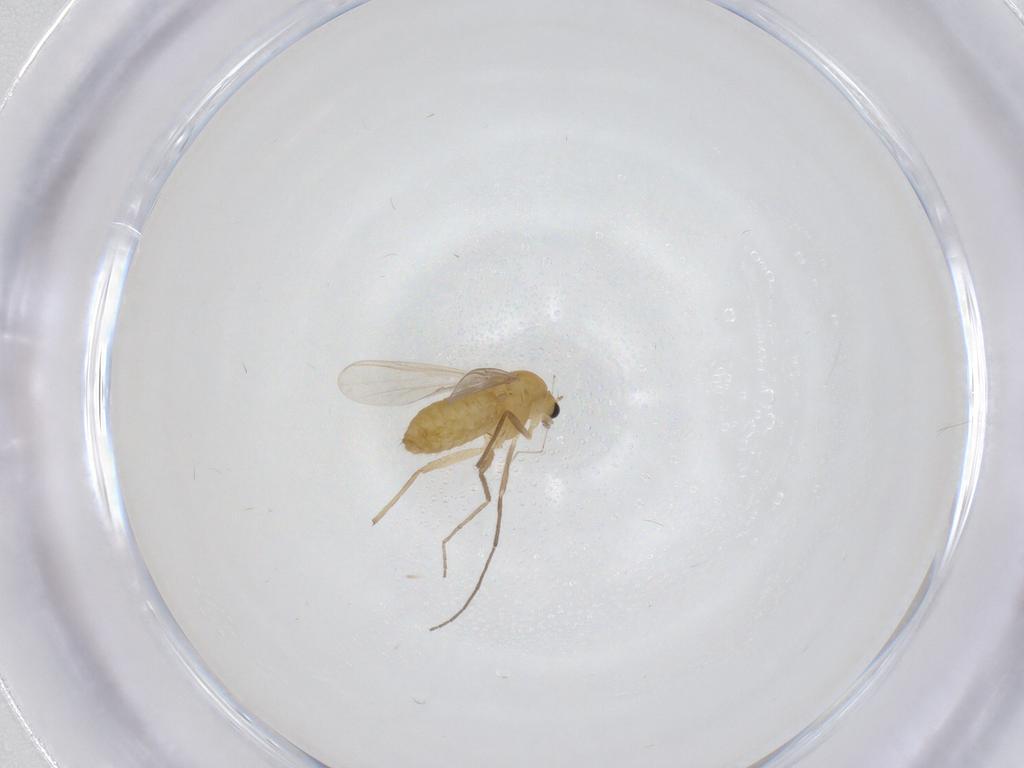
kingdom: Animalia
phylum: Arthropoda
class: Insecta
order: Diptera
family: Chironomidae
